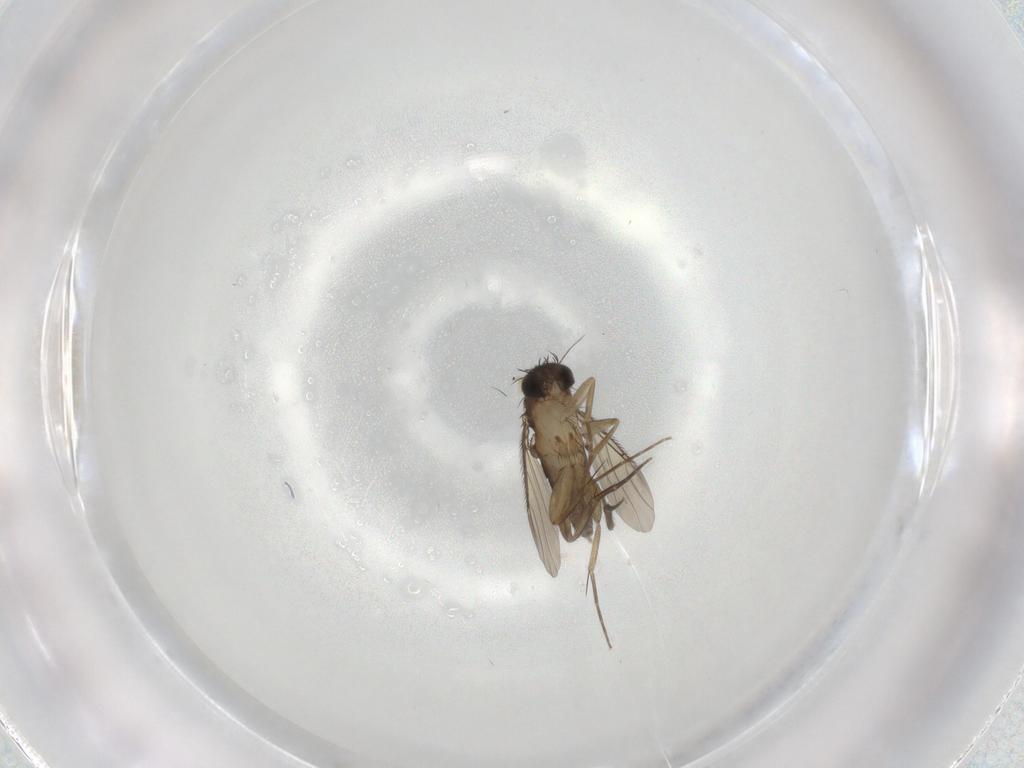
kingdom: Animalia
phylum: Arthropoda
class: Insecta
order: Diptera
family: Phoridae
